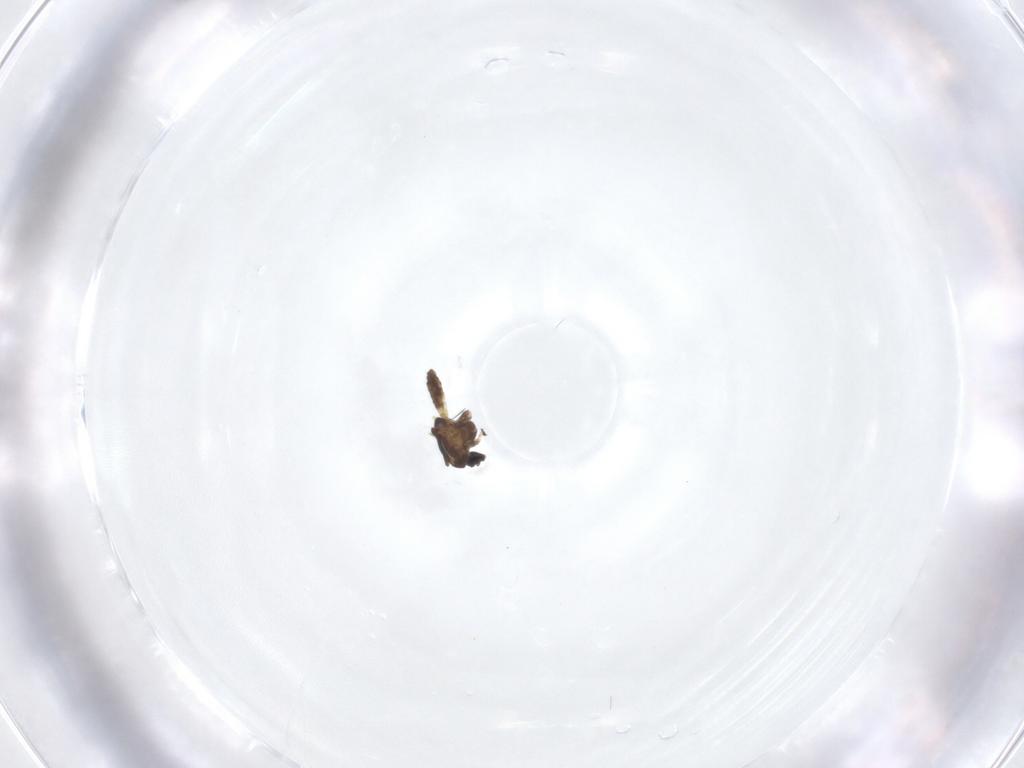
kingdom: Animalia
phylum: Arthropoda
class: Insecta
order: Diptera
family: Chironomidae
